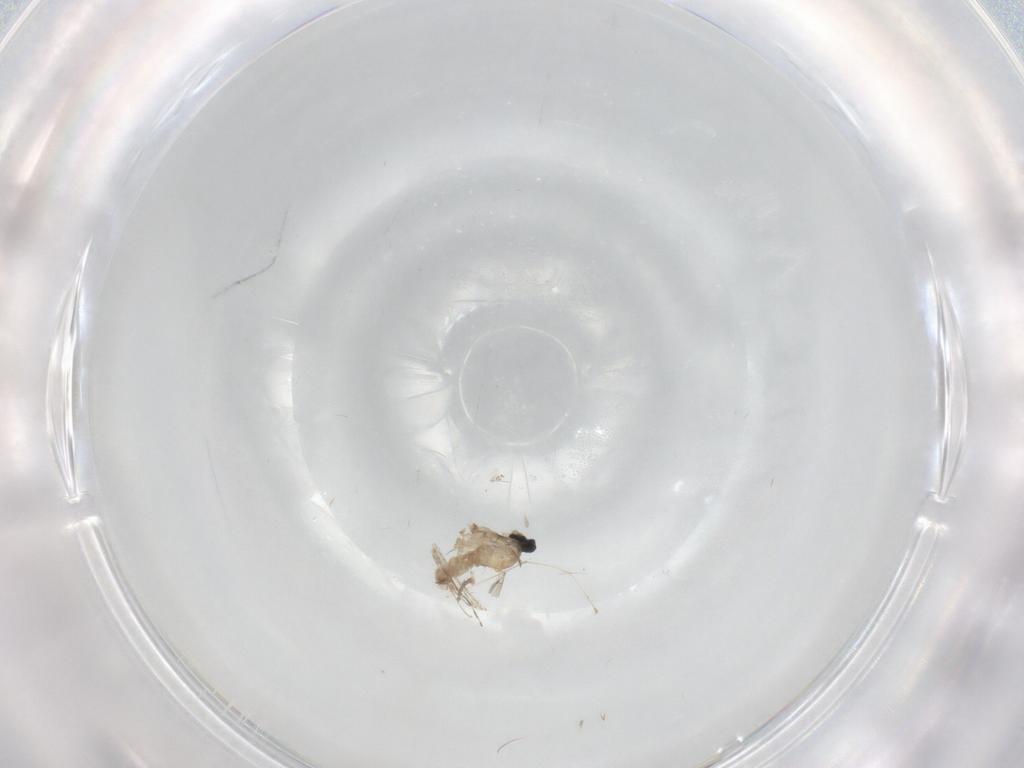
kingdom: Animalia
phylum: Arthropoda
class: Insecta
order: Diptera
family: Cecidomyiidae
